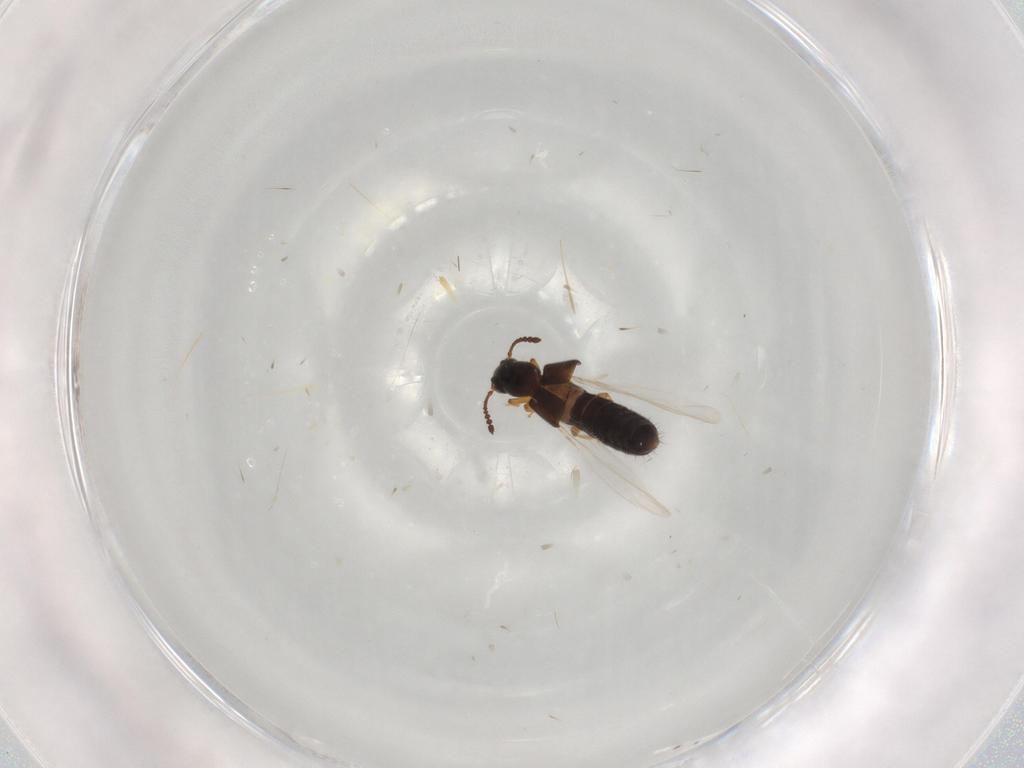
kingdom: Animalia
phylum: Arthropoda
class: Insecta
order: Coleoptera
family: Staphylinidae
